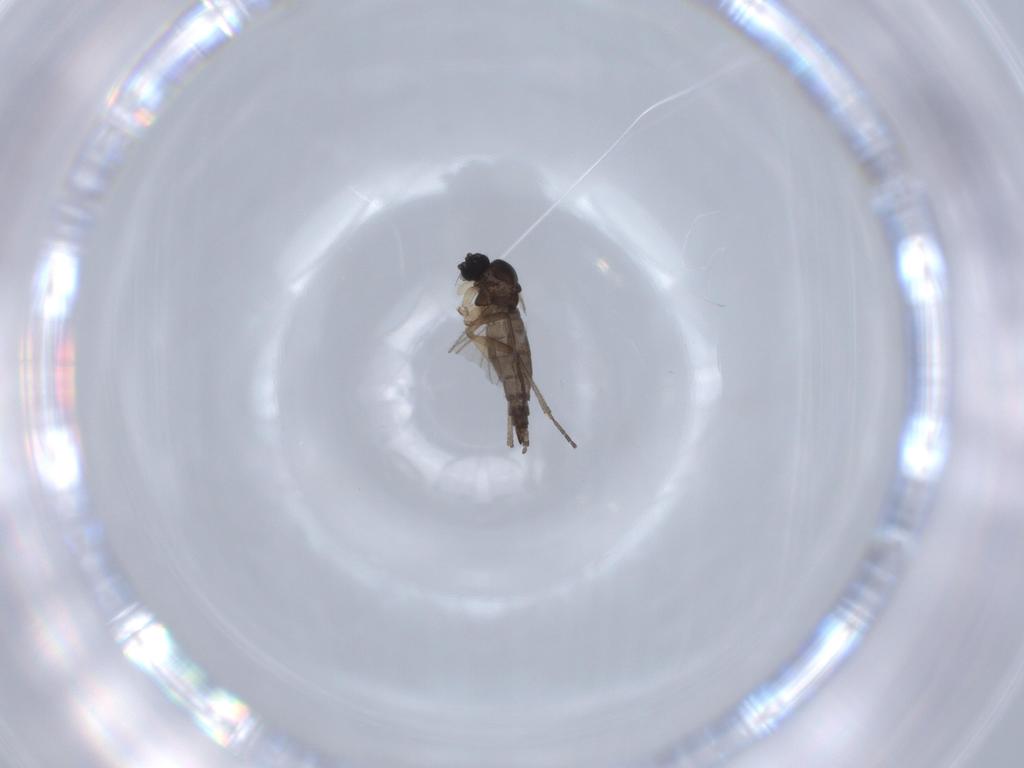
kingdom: Animalia
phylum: Arthropoda
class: Insecta
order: Diptera
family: Sciaridae
